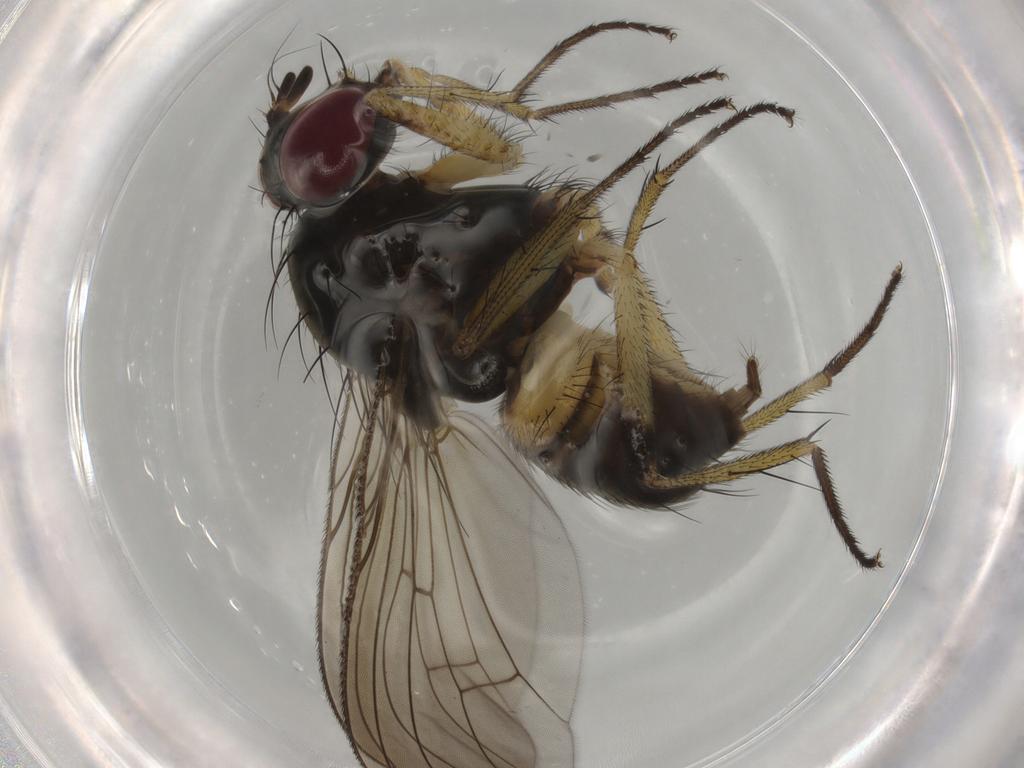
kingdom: Animalia
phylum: Arthropoda
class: Insecta
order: Diptera
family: Muscidae
